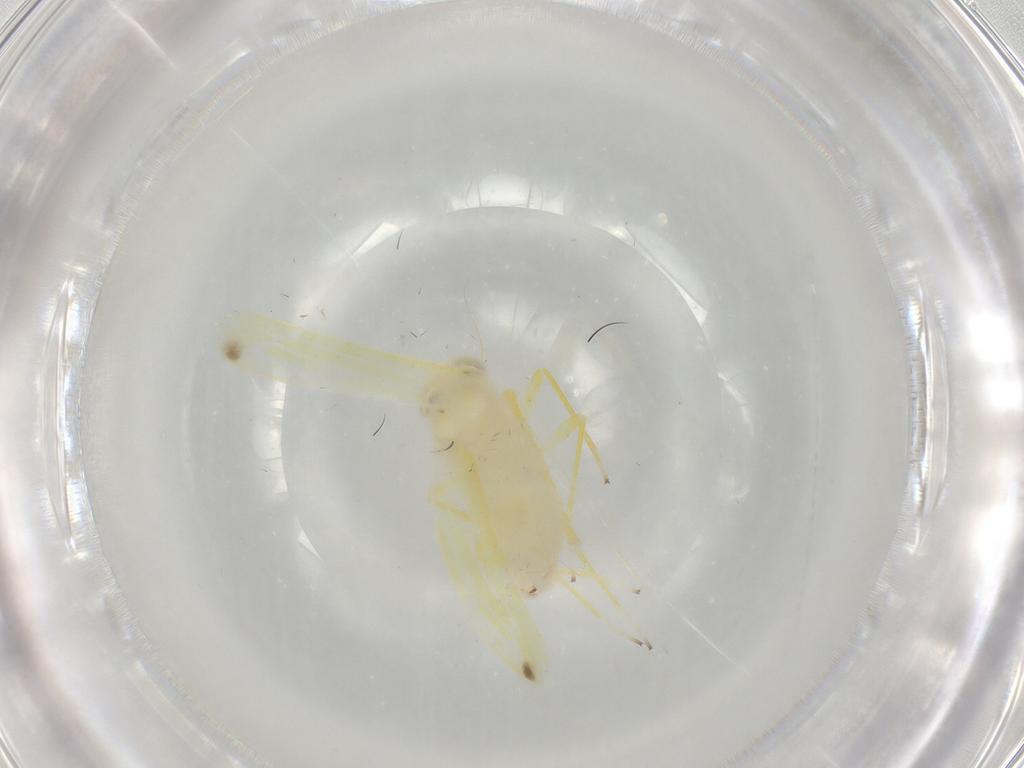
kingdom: Animalia
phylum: Arthropoda
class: Insecta
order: Hemiptera
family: Cicadellidae
